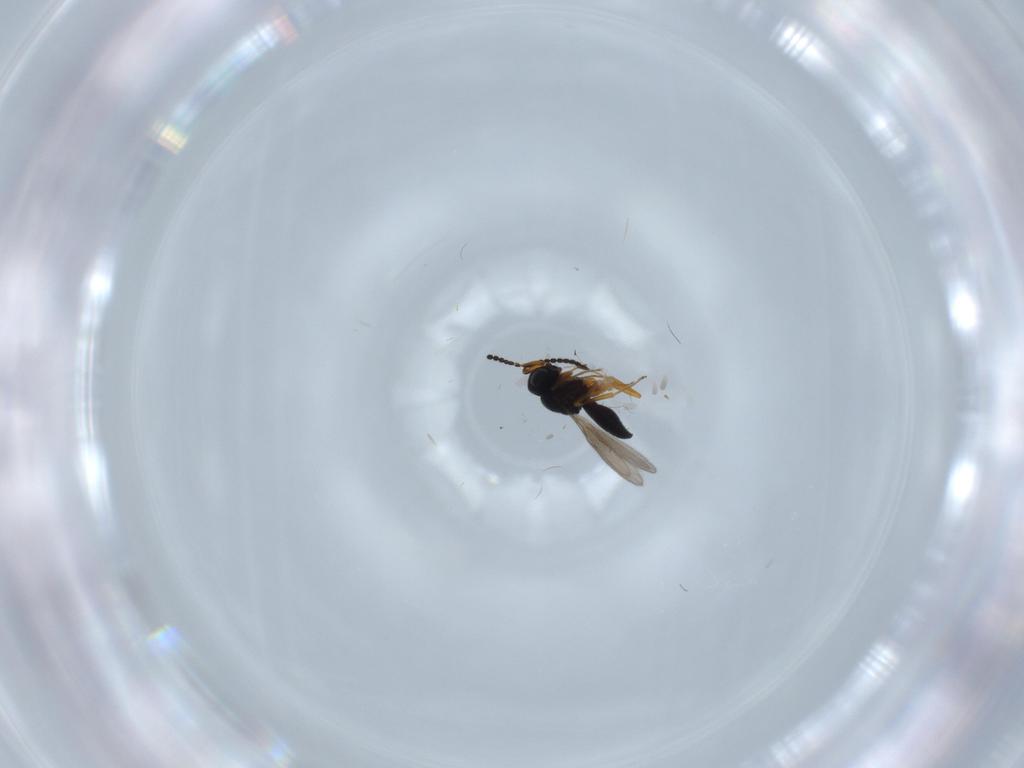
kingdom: Animalia
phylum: Arthropoda
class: Insecta
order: Hymenoptera
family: Scelionidae
